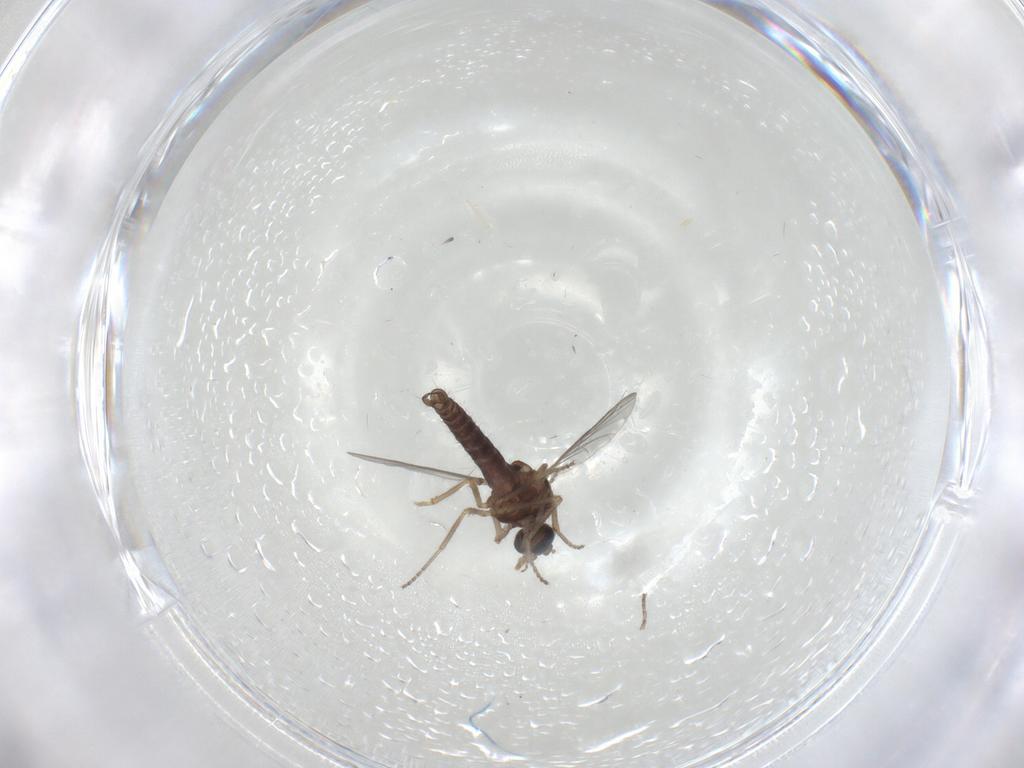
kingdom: Animalia
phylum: Arthropoda
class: Insecta
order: Diptera
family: Ceratopogonidae
